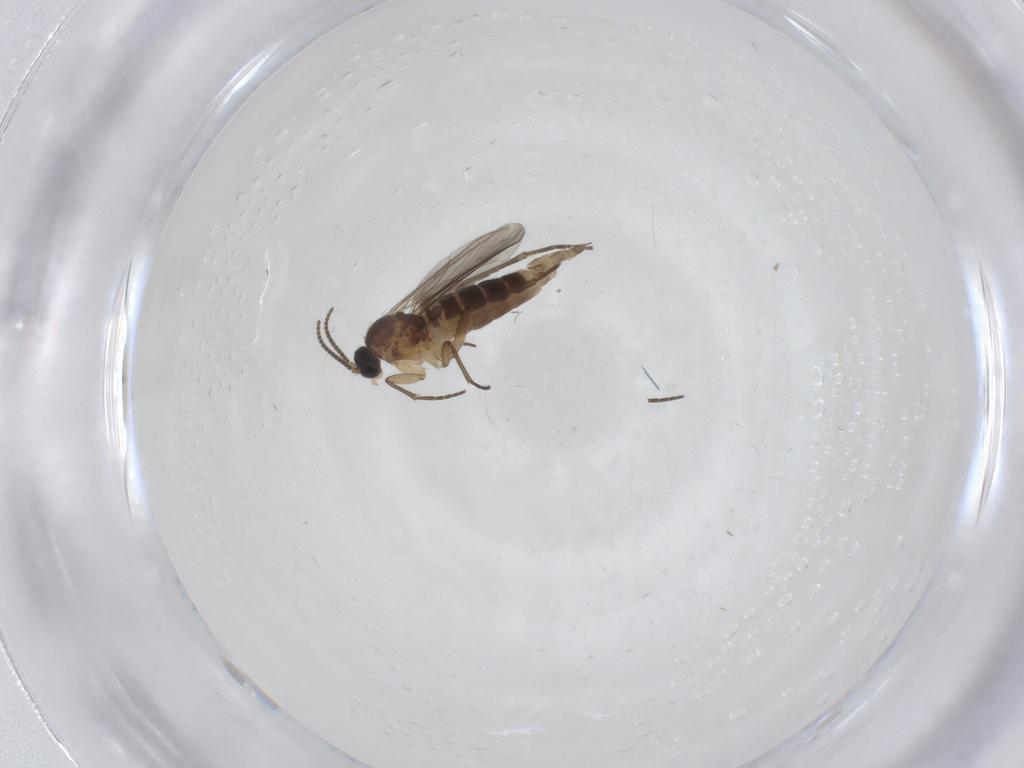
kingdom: Animalia
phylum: Arthropoda
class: Insecta
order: Diptera
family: Sciaridae
